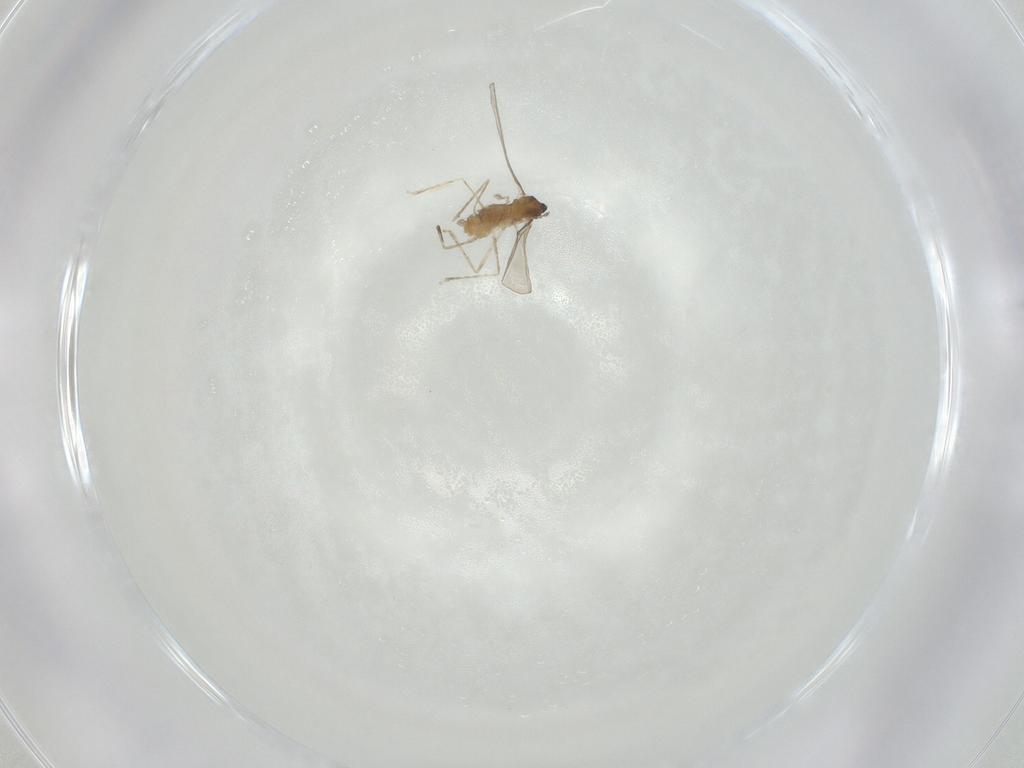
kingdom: Animalia
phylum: Arthropoda
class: Insecta
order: Diptera
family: Cecidomyiidae
